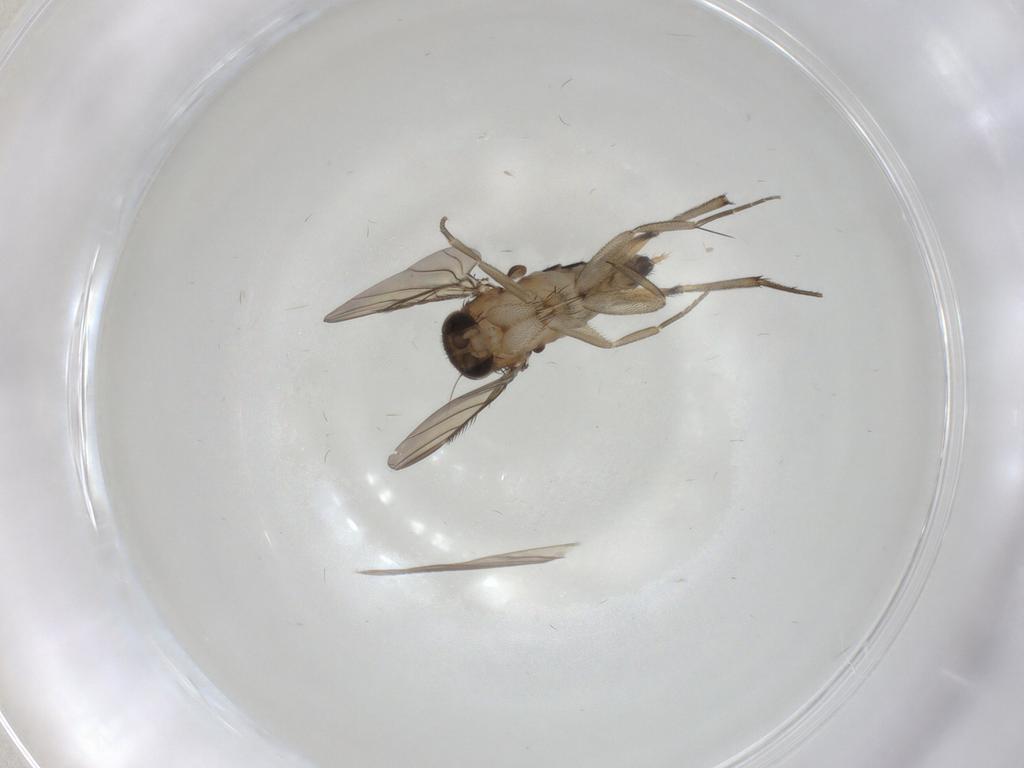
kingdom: Animalia
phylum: Arthropoda
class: Insecta
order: Diptera
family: Phoridae
